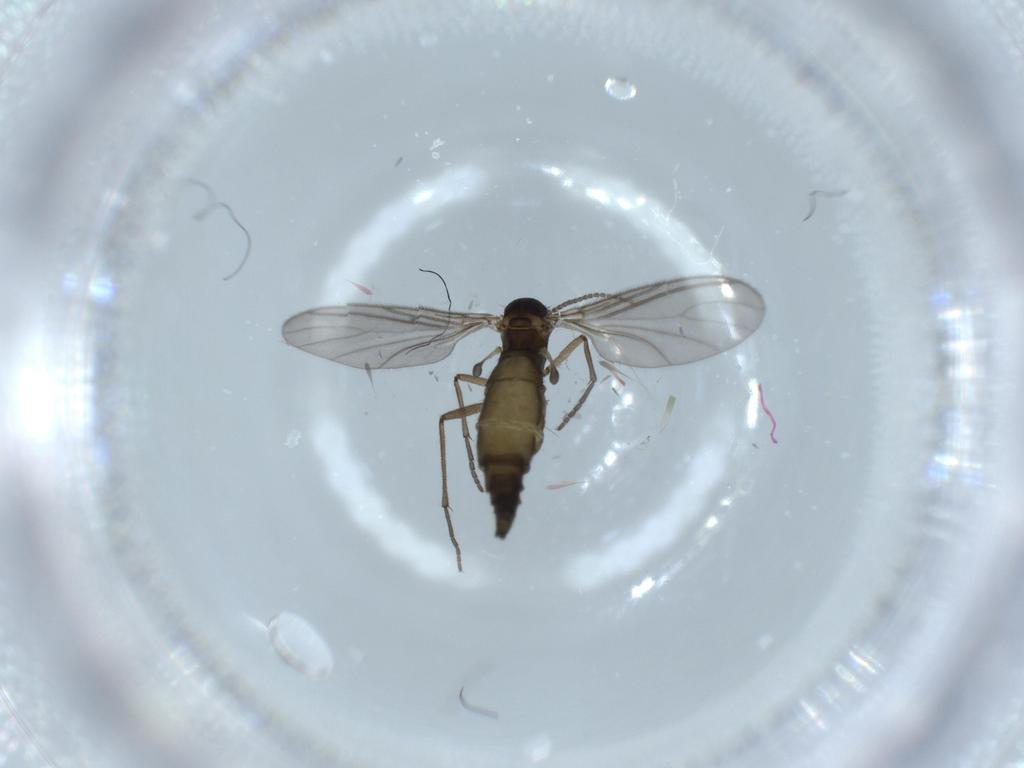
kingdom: Animalia
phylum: Arthropoda
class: Insecta
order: Diptera
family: Sciaridae
